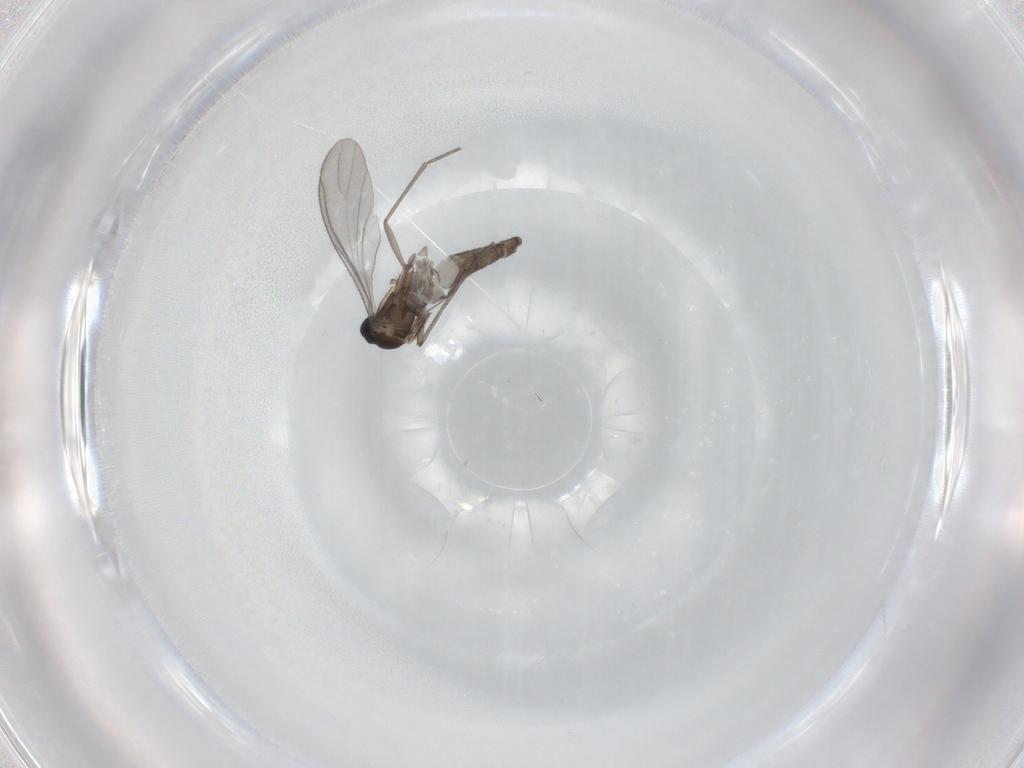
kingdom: Animalia
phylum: Arthropoda
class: Insecta
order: Diptera
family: Sciaridae
